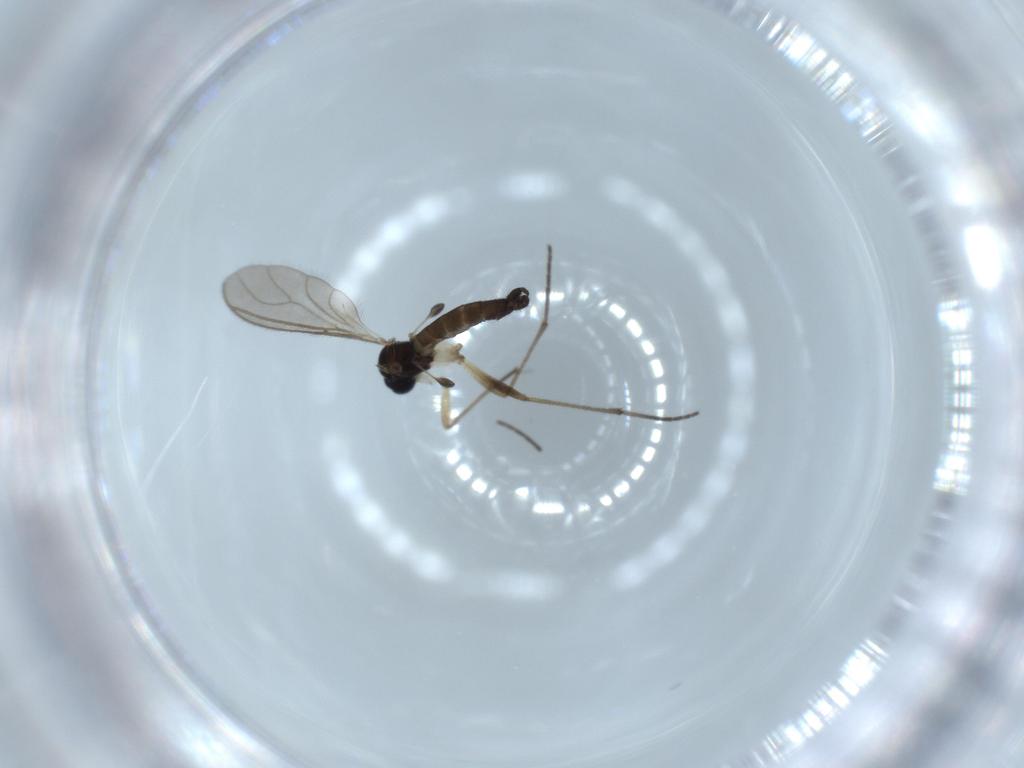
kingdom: Animalia
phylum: Arthropoda
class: Insecta
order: Diptera
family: Sciaridae
